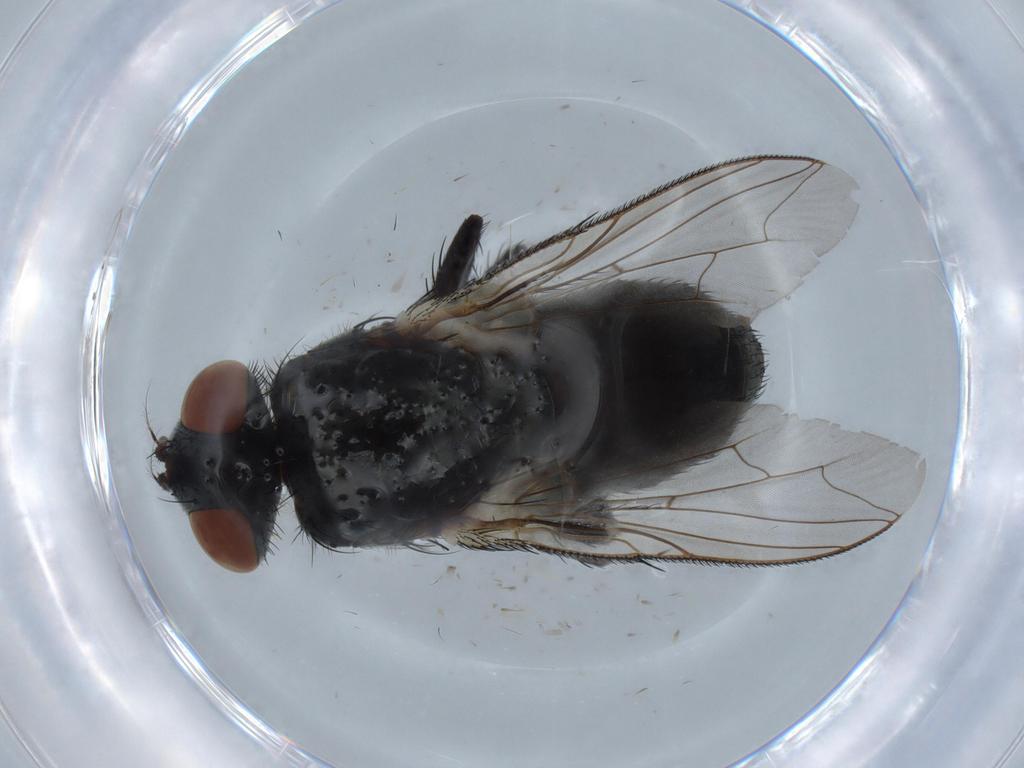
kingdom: Animalia
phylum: Arthropoda
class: Insecta
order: Diptera
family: Sarcophagidae
